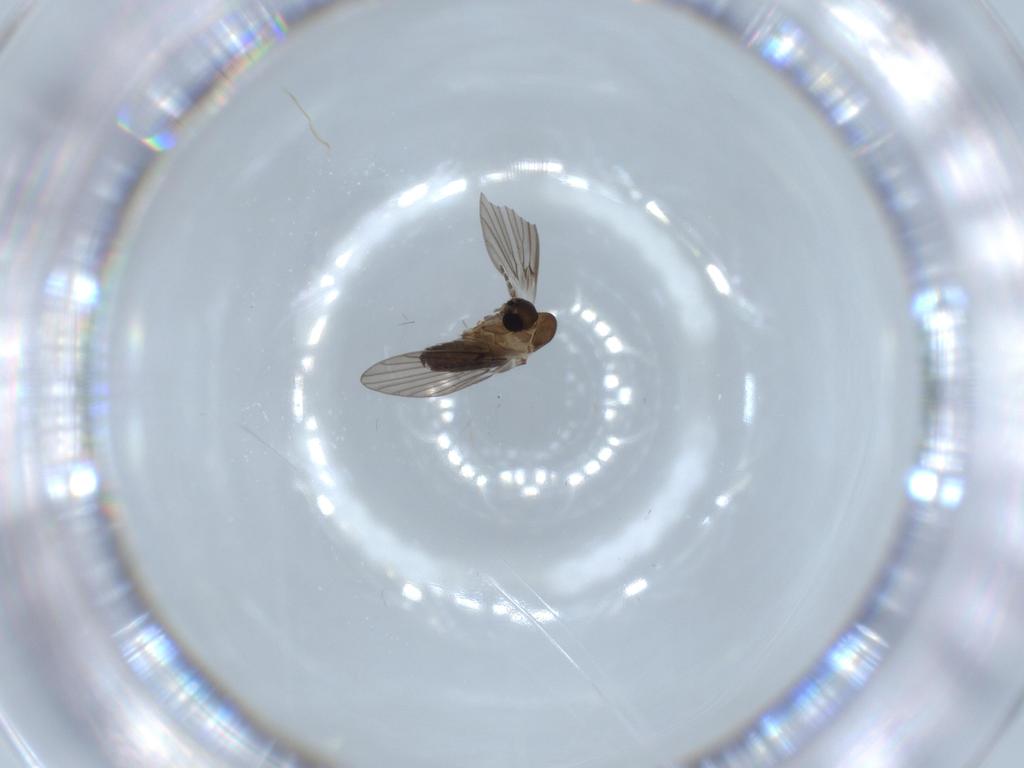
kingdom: Animalia
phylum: Arthropoda
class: Insecta
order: Diptera
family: Psychodidae
